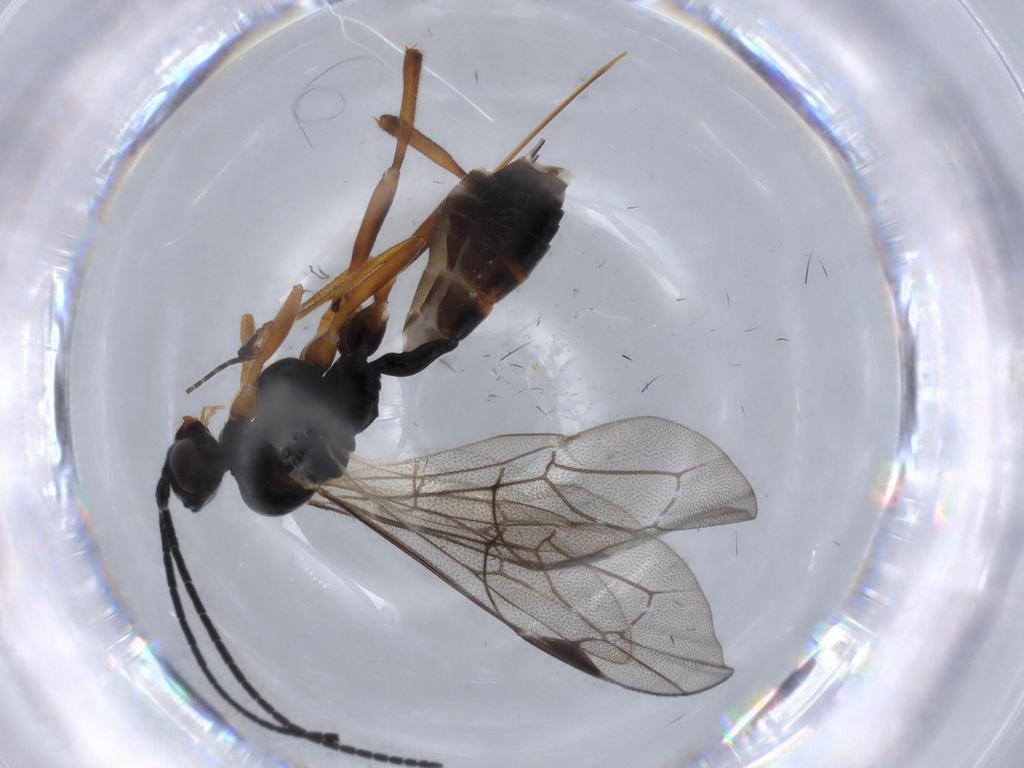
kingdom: Animalia
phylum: Arthropoda
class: Insecta
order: Hymenoptera
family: Ichneumonidae
